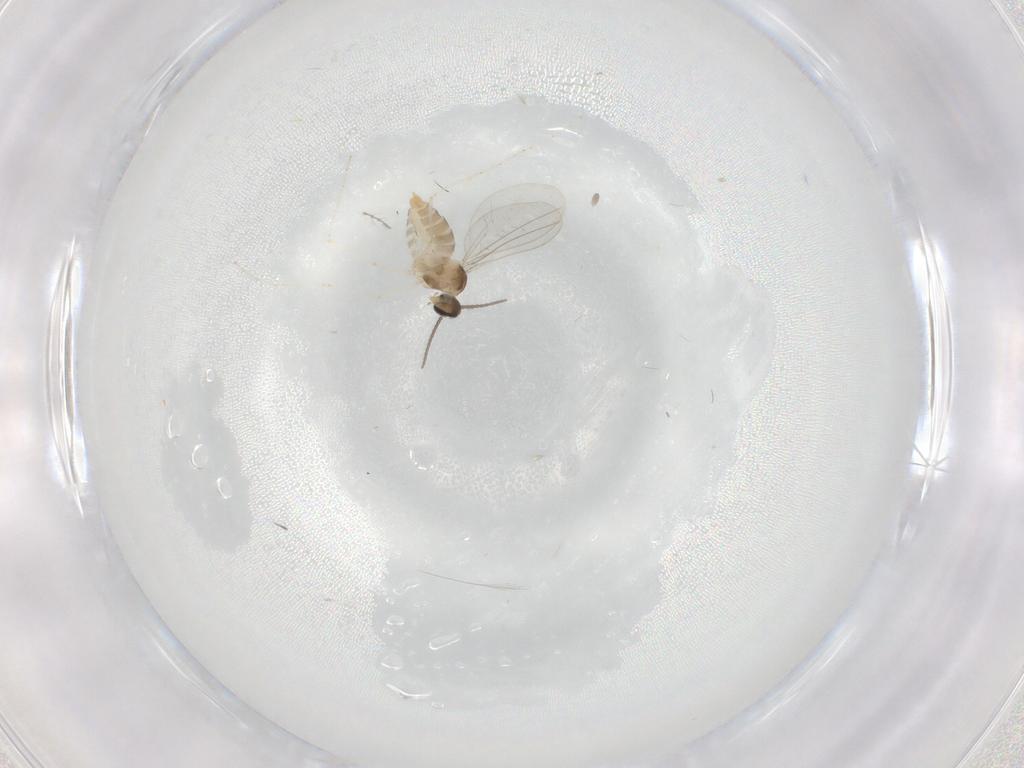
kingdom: Animalia
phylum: Arthropoda
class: Insecta
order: Diptera
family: Cecidomyiidae
